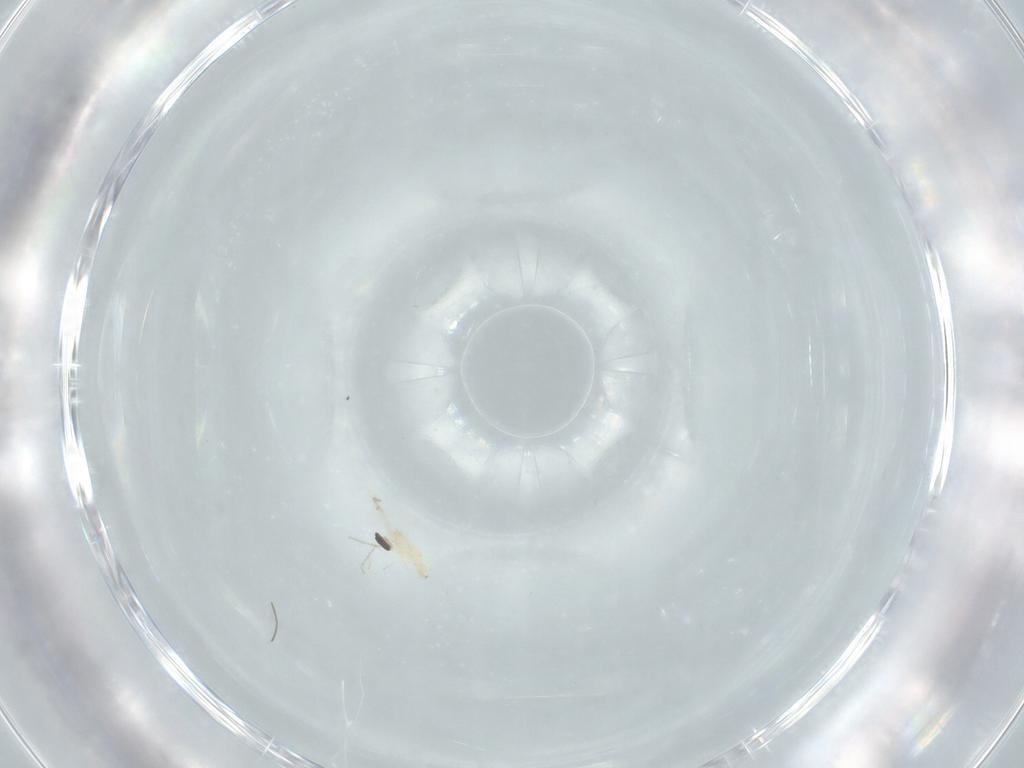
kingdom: Animalia
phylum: Arthropoda
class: Insecta
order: Diptera
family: Cecidomyiidae
